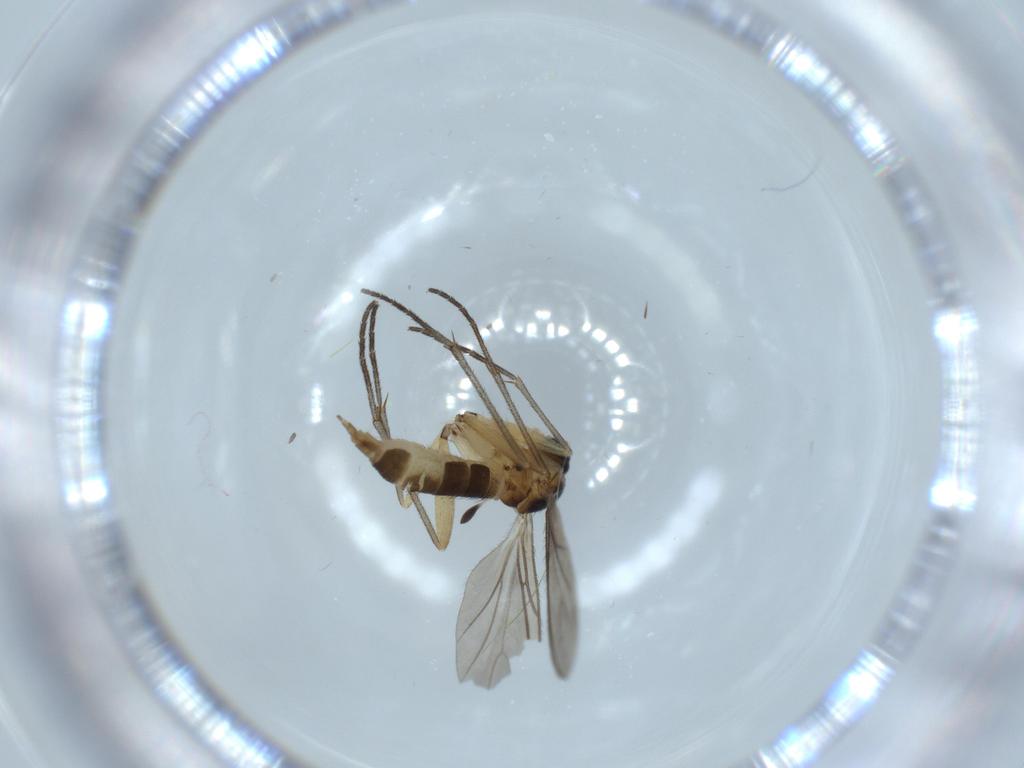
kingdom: Animalia
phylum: Arthropoda
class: Insecta
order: Diptera
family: Sciaridae
